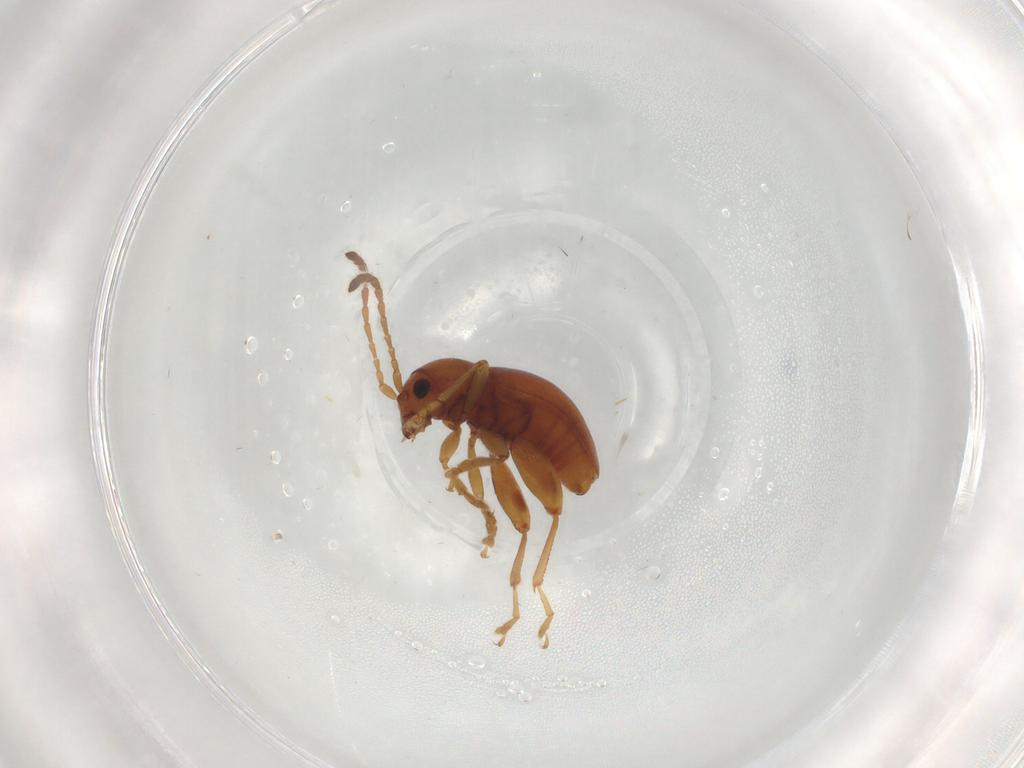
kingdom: Animalia
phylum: Arthropoda
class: Insecta
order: Coleoptera
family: Chrysomelidae
